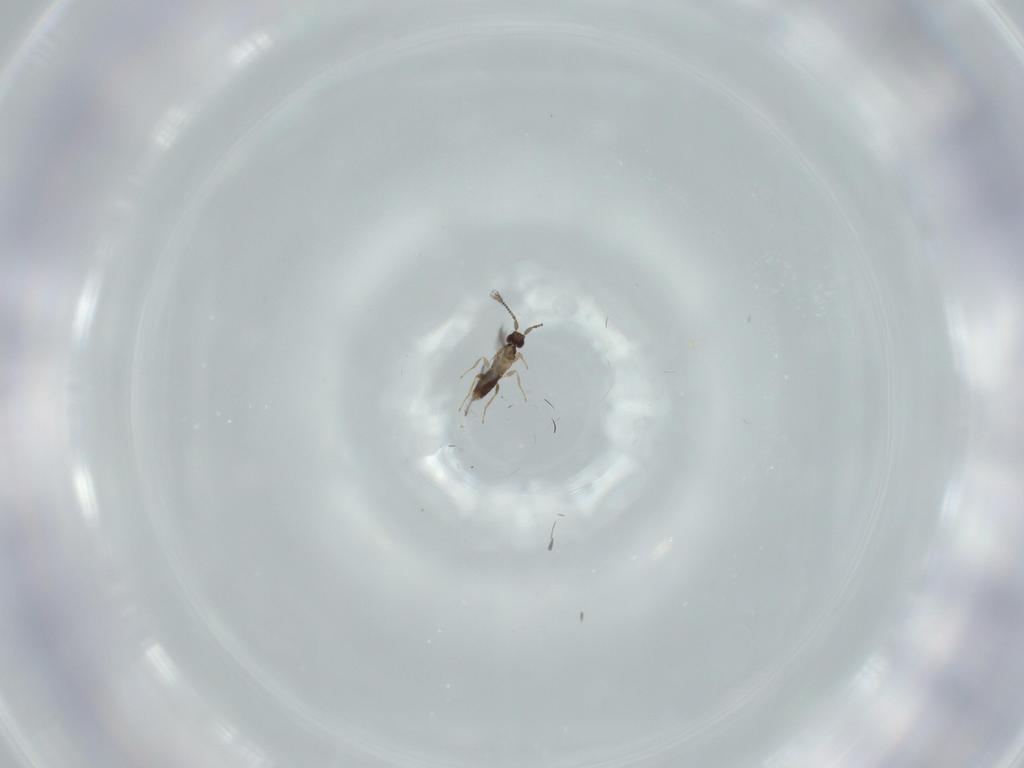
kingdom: Animalia
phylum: Arthropoda
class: Insecta
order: Hymenoptera
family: Mymaridae
